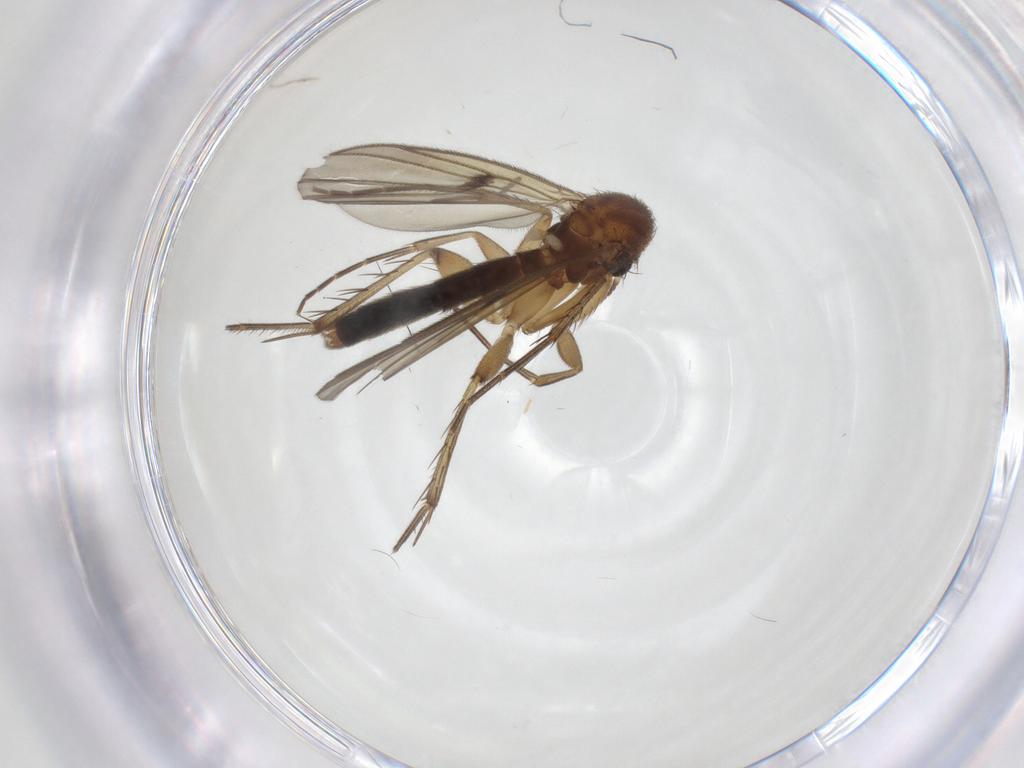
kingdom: Animalia
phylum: Arthropoda
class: Insecta
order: Diptera
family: Mycetophilidae
